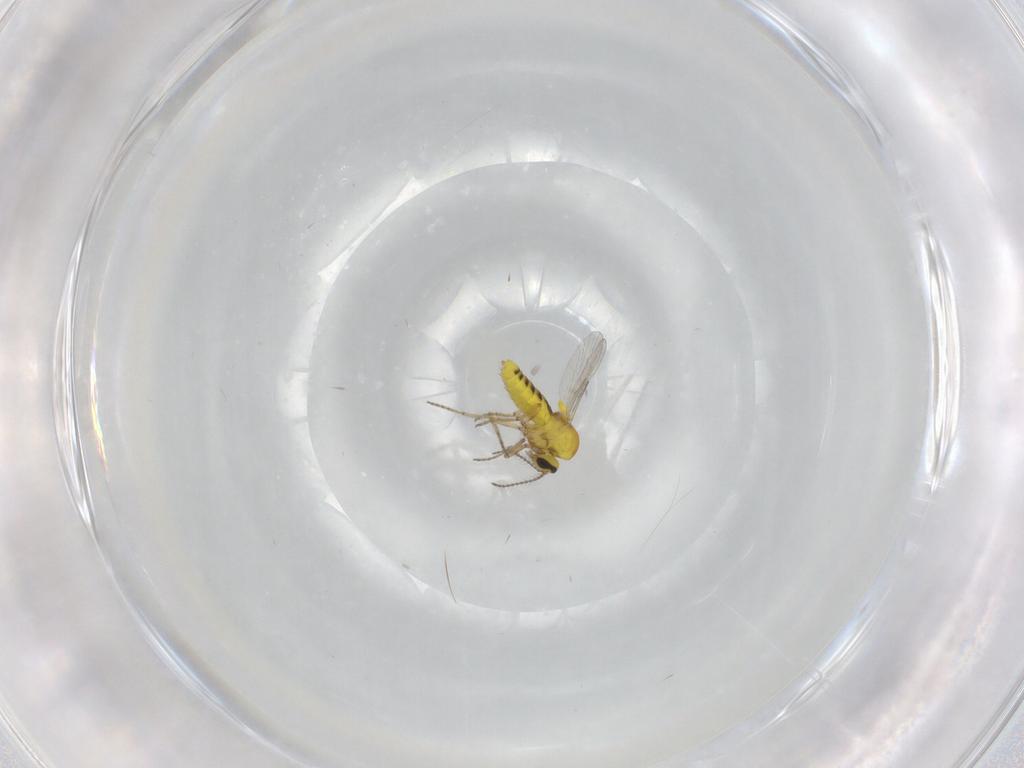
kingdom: Animalia
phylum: Arthropoda
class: Insecta
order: Diptera
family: Ceratopogonidae
